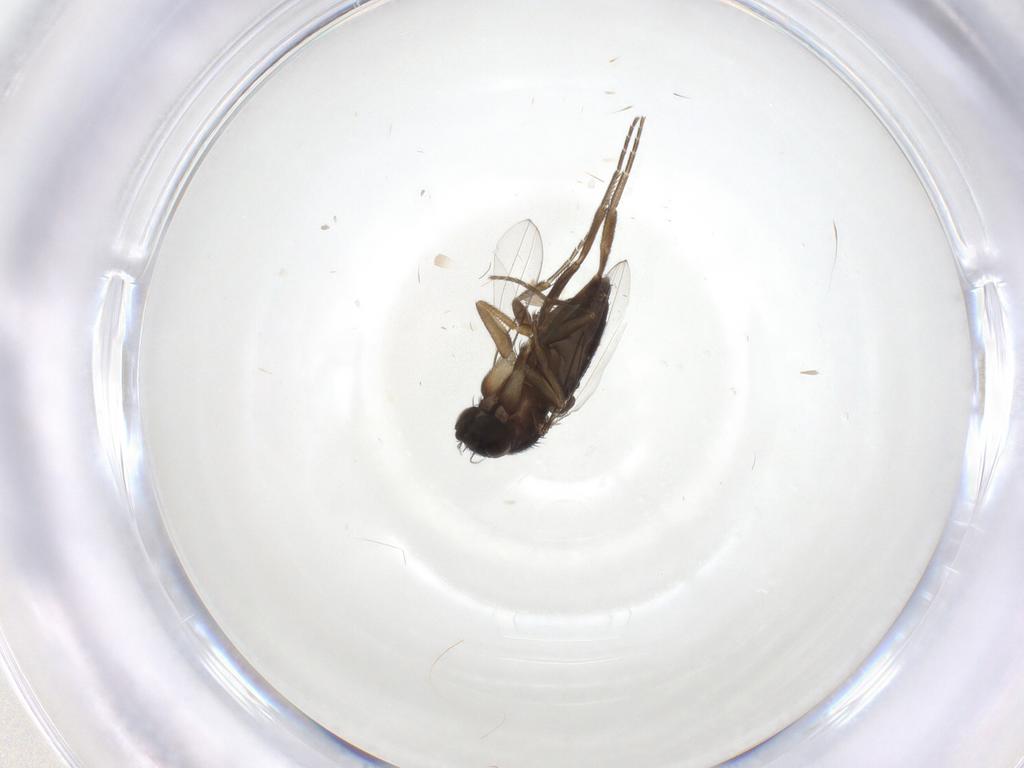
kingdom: Animalia
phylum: Arthropoda
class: Insecta
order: Diptera
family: Phoridae
